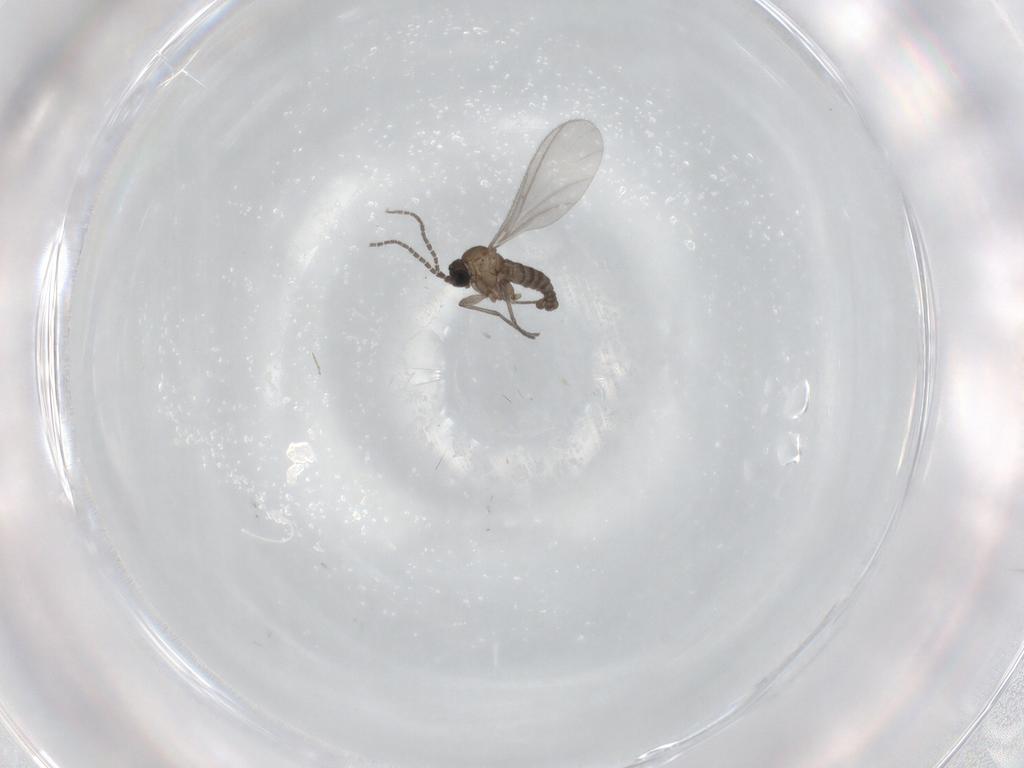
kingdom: Animalia
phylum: Arthropoda
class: Insecta
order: Diptera
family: Sciaridae
